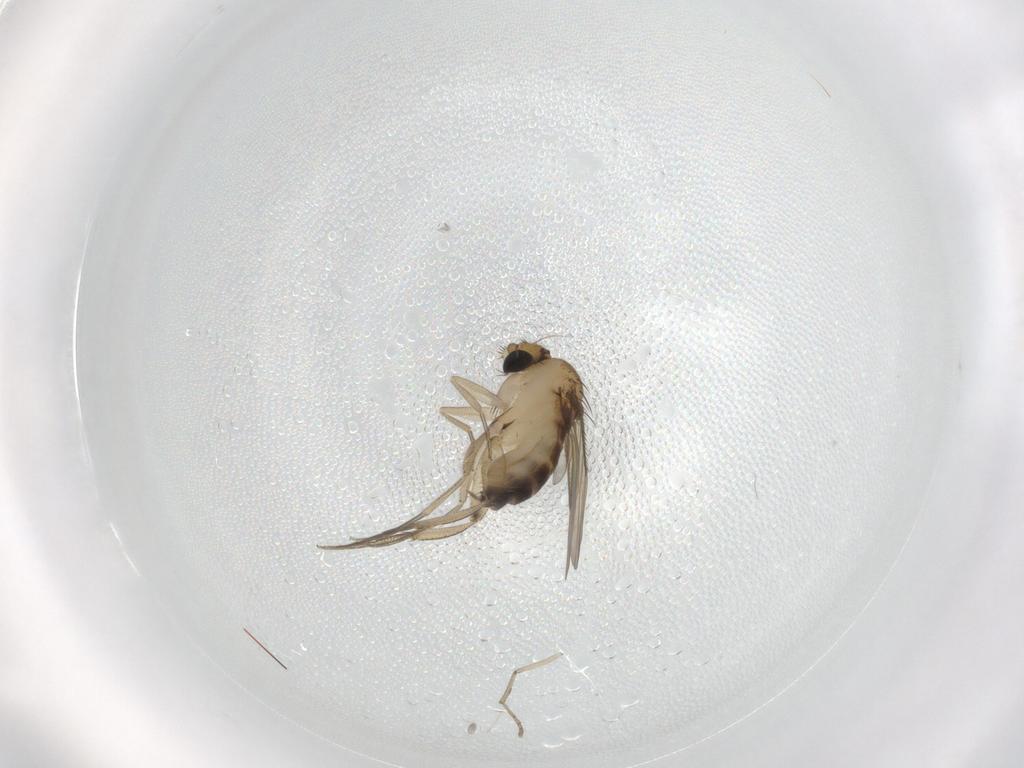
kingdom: Animalia
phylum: Arthropoda
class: Insecta
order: Diptera
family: Phoridae
